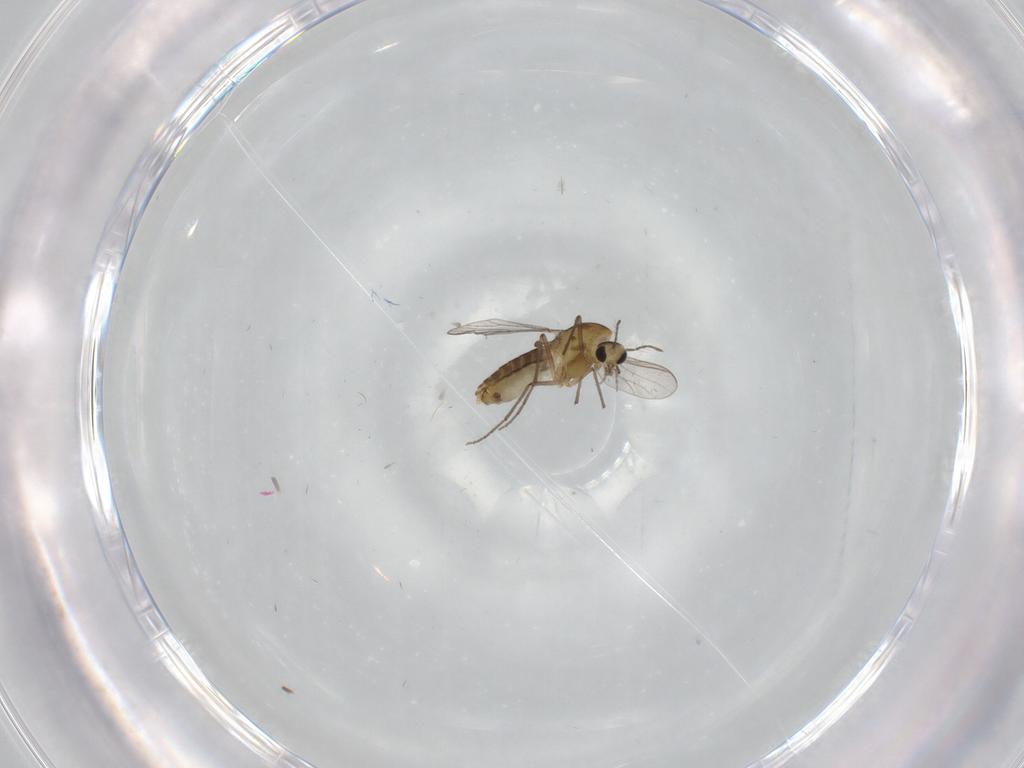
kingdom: Animalia
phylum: Arthropoda
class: Insecta
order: Diptera
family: Chironomidae
